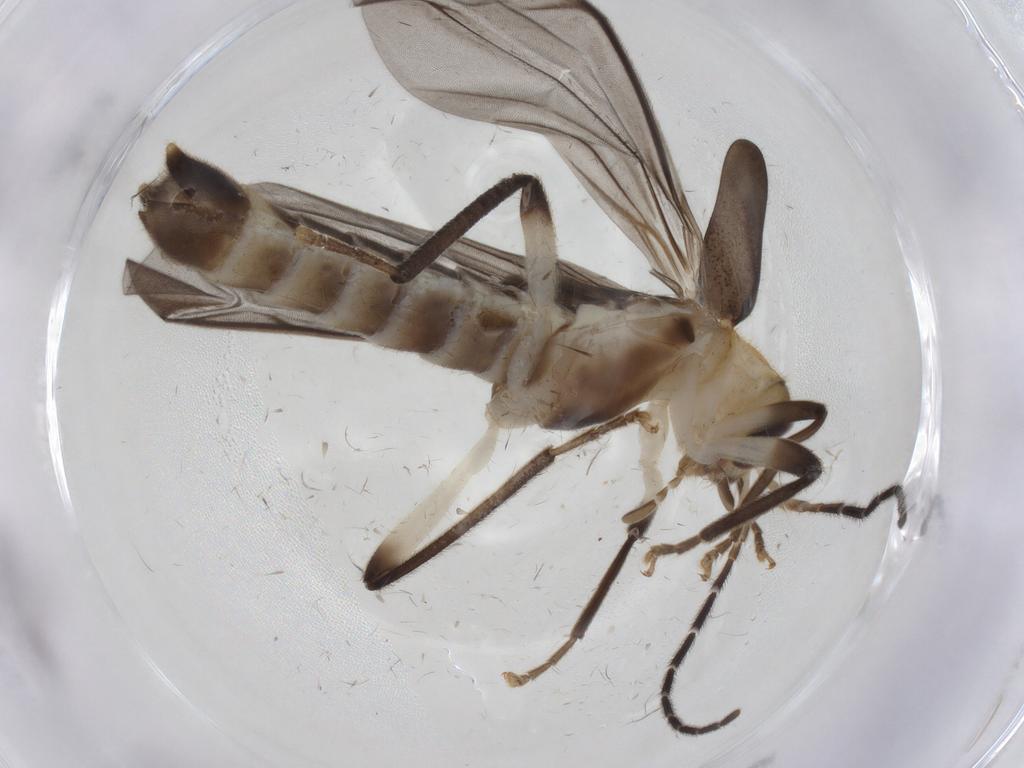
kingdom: Animalia
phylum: Arthropoda
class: Insecta
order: Coleoptera
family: Cantharidae
